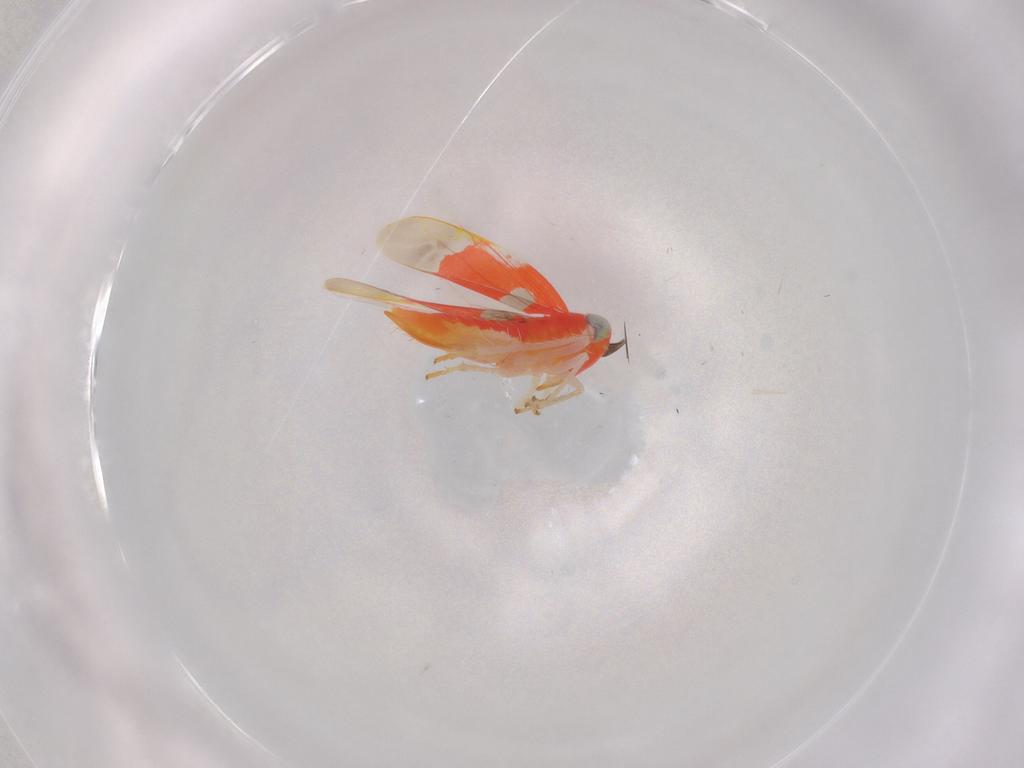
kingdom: Animalia
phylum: Arthropoda
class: Insecta
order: Hemiptera
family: Cicadellidae
